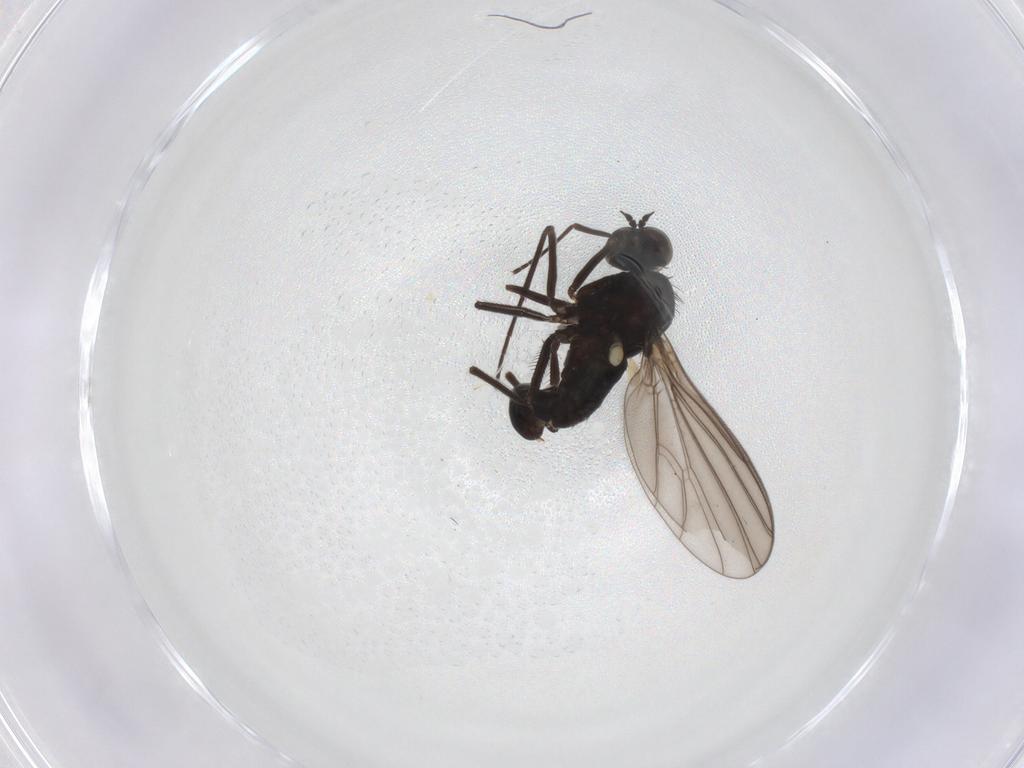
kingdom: Animalia
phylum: Arthropoda
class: Insecta
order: Diptera
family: Dolichopodidae
